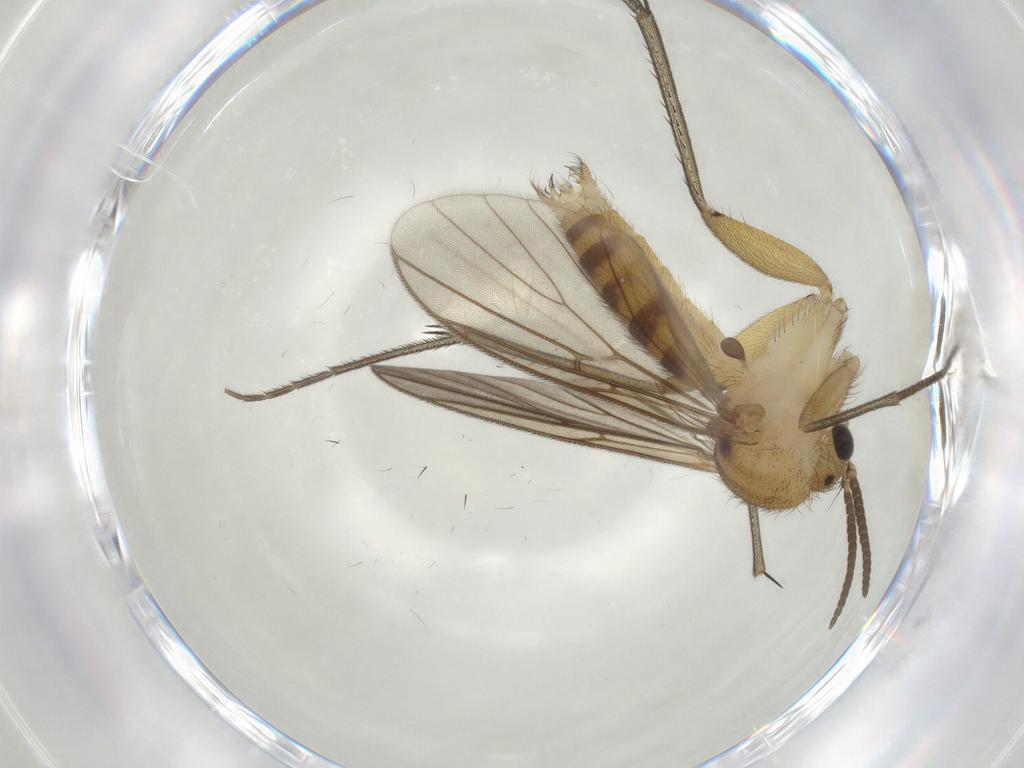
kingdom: Animalia
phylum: Arthropoda
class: Insecta
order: Diptera
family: Mycetophilidae
